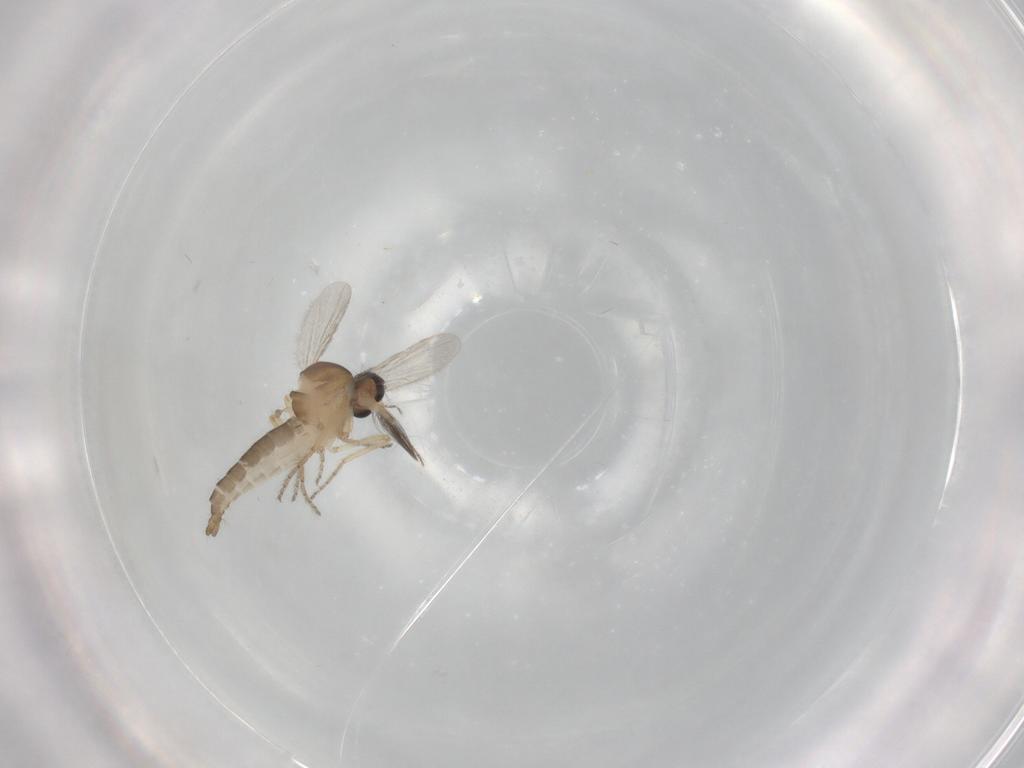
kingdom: Animalia
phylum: Arthropoda
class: Insecta
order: Diptera
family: Ceratopogonidae
